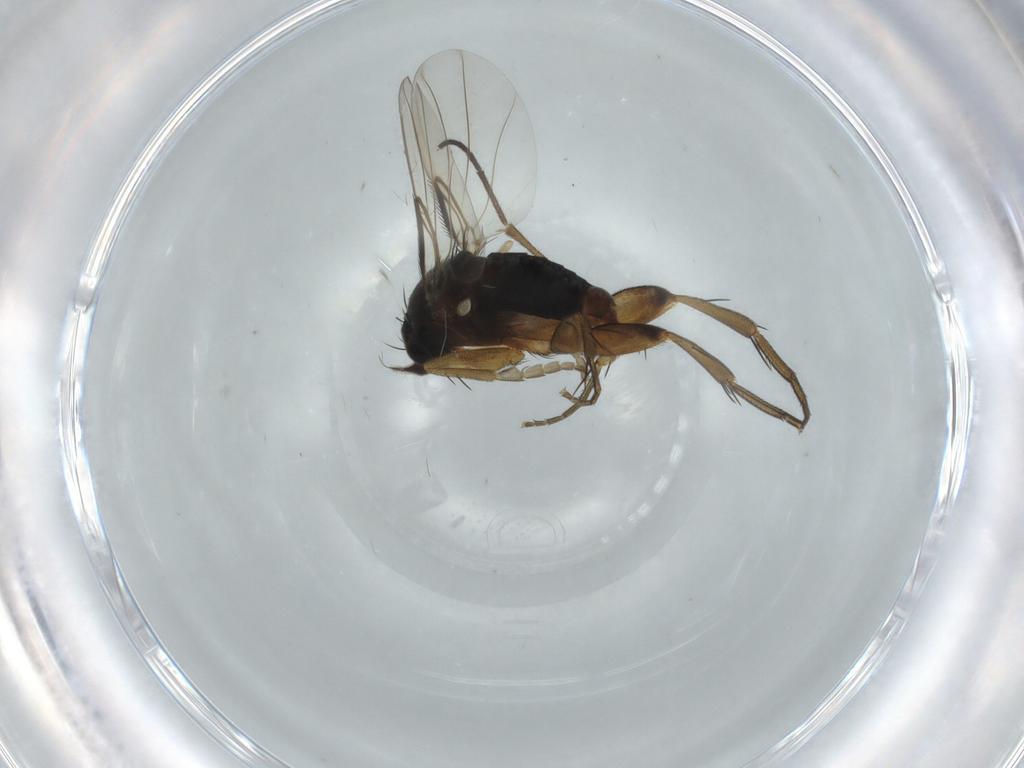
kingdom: Animalia
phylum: Arthropoda
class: Insecta
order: Diptera
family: Phoridae
